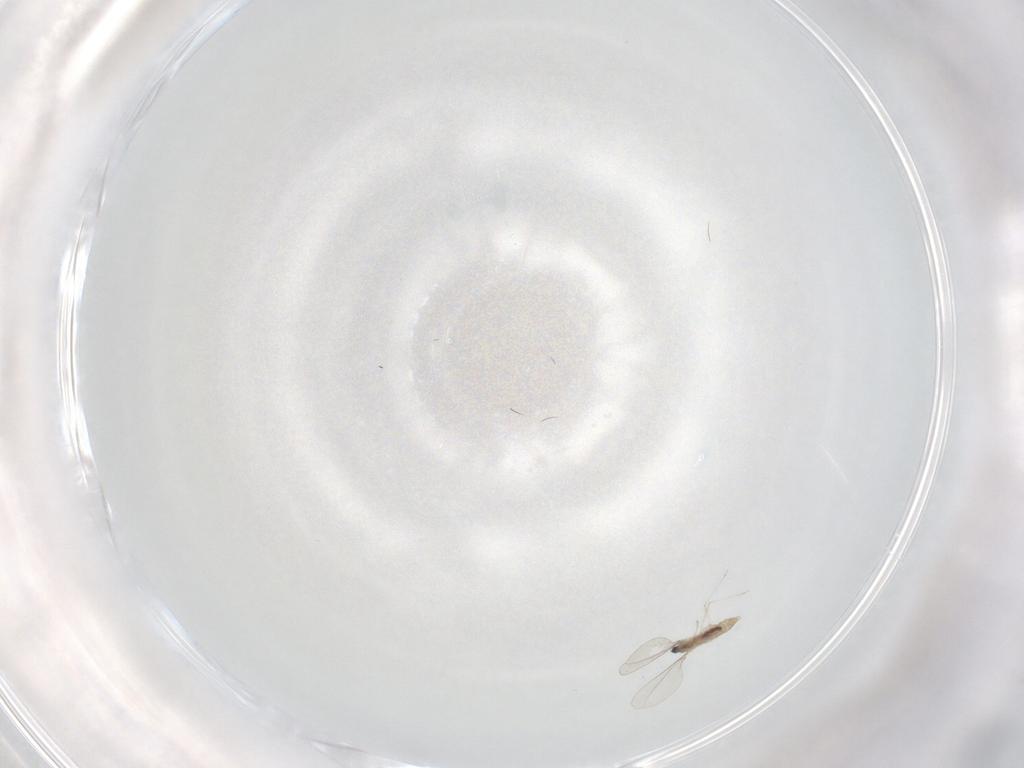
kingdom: Animalia
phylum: Arthropoda
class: Insecta
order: Diptera
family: Cecidomyiidae
